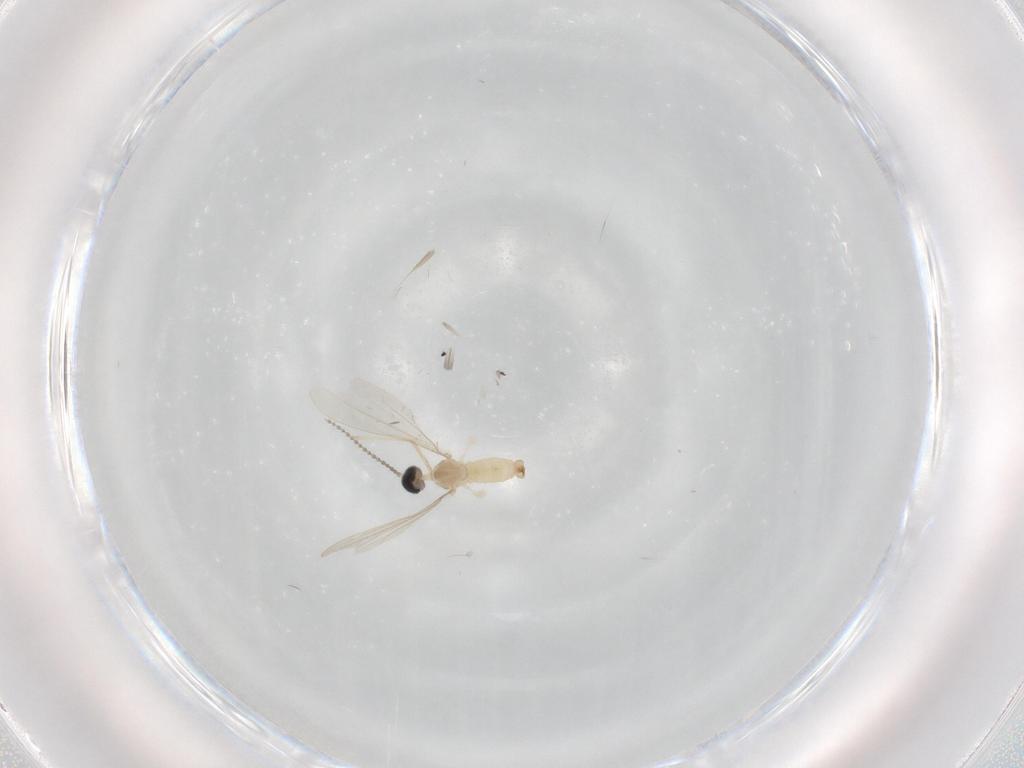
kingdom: Animalia
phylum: Arthropoda
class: Insecta
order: Diptera
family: Cecidomyiidae
